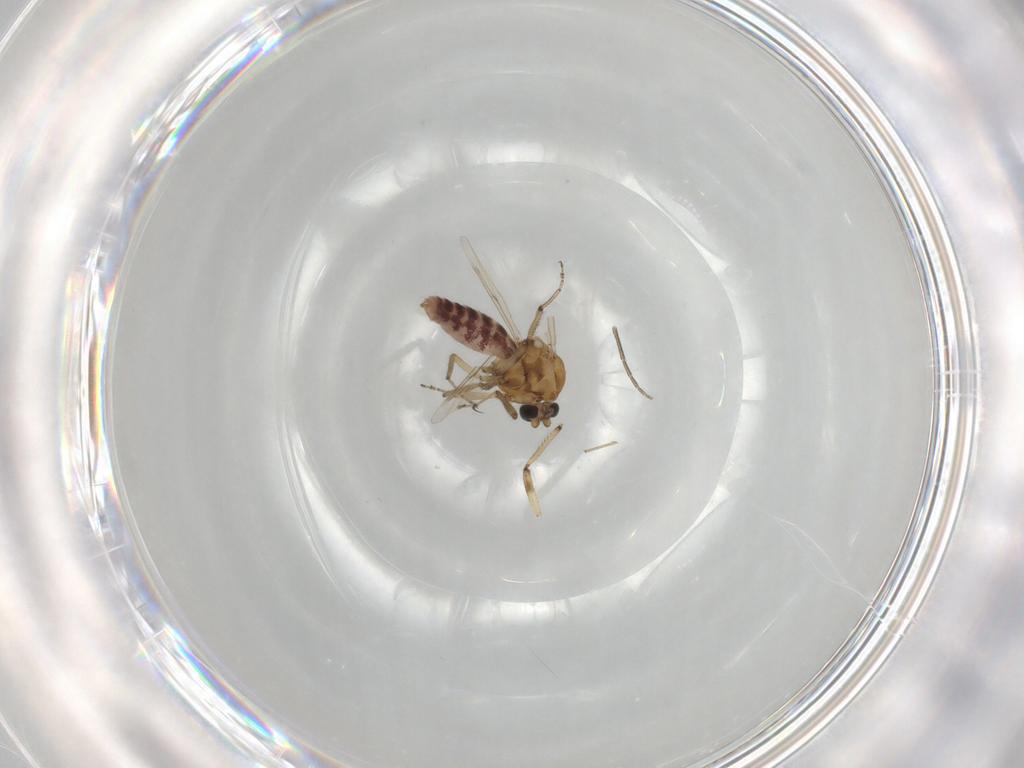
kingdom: Animalia
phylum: Arthropoda
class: Insecta
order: Diptera
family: Ceratopogonidae
